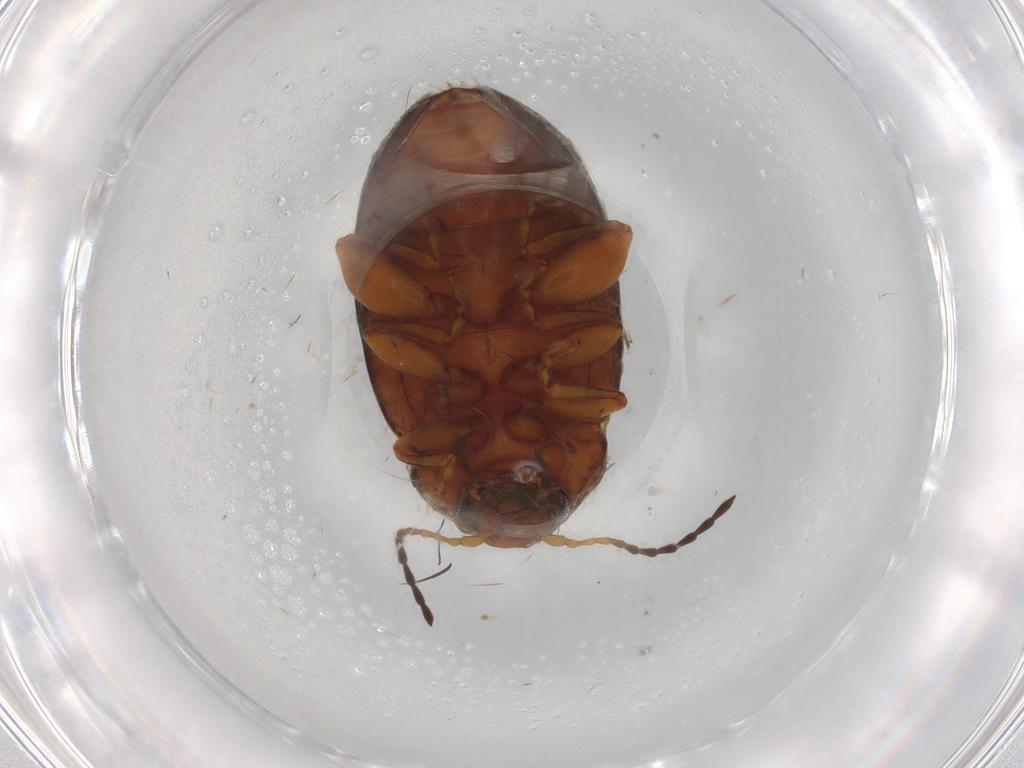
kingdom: Animalia
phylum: Arthropoda
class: Insecta
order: Coleoptera
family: Chrysomelidae
